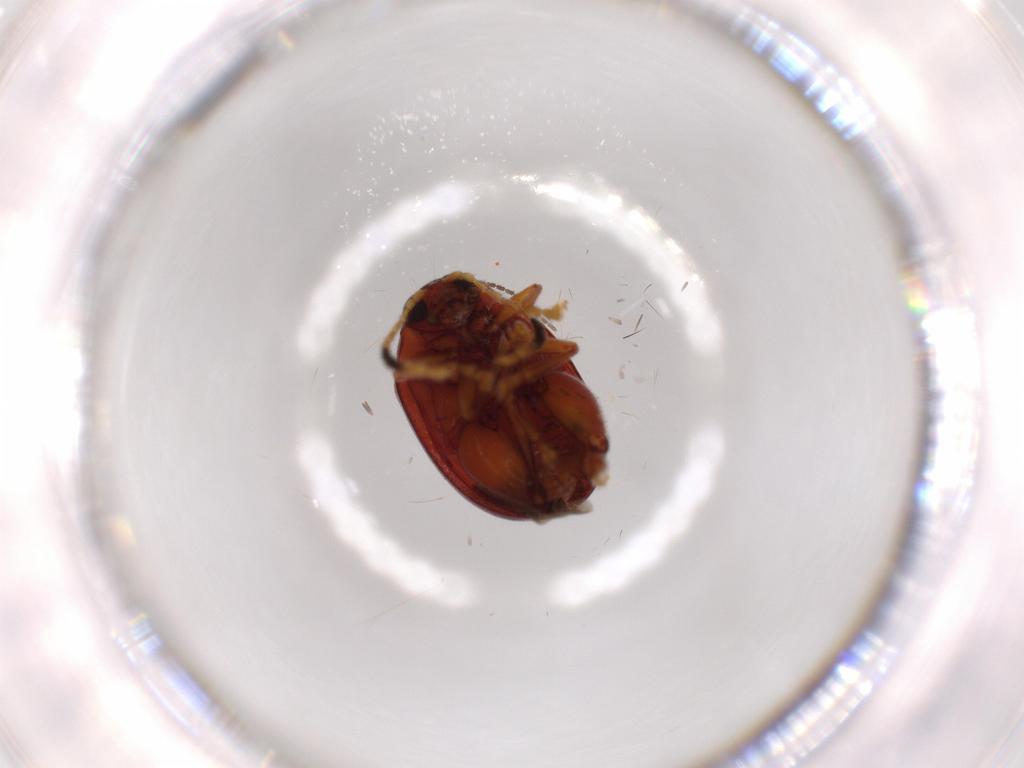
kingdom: Animalia
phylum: Arthropoda
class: Insecta
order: Coleoptera
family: Chrysomelidae
